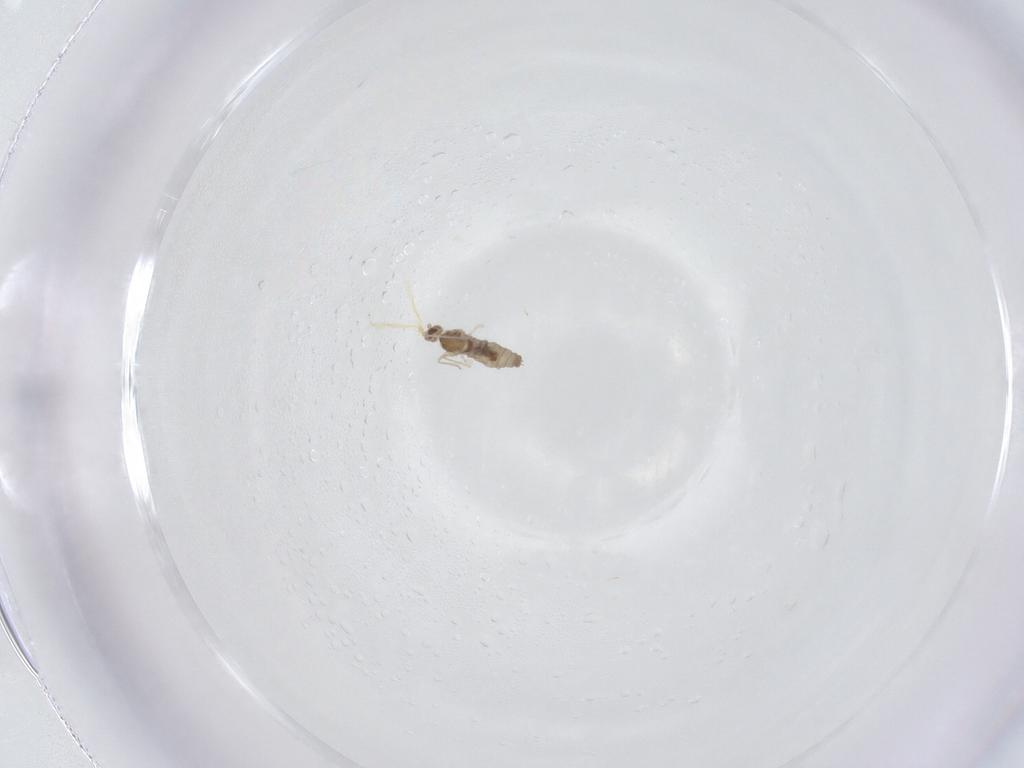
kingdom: Animalia
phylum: Arthropoda
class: Insecta
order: Diptera
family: Cecidomyiidae
